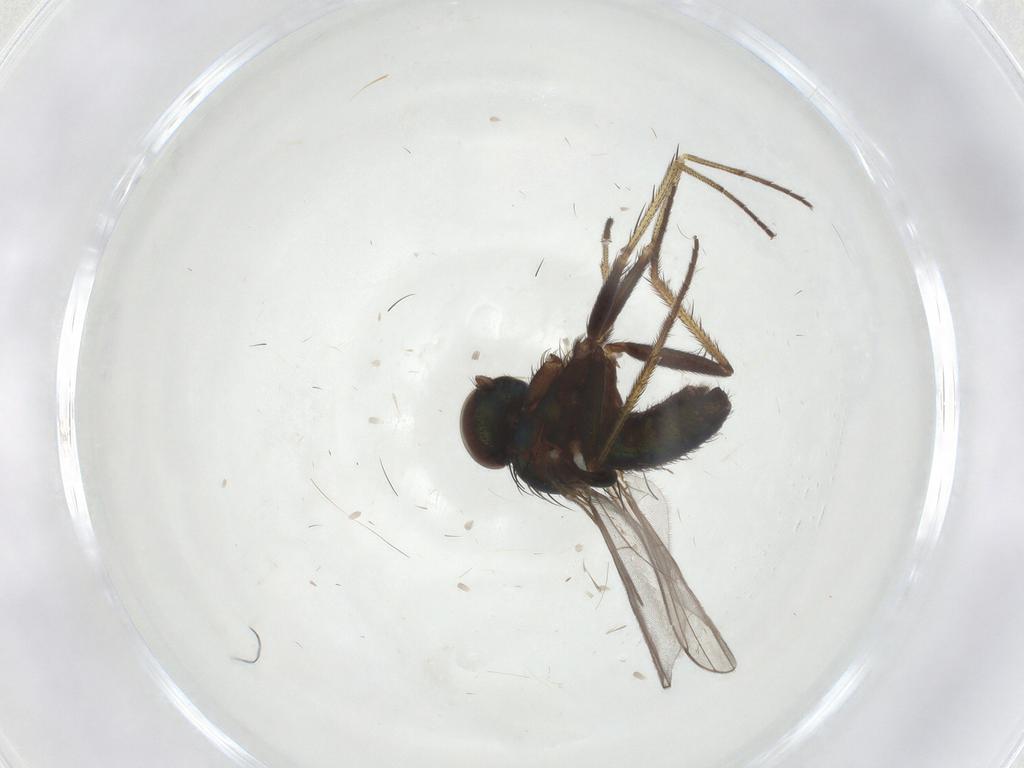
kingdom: Animalia
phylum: Arthropoda
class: Insecta
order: Diptera
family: Dolichopodidae
